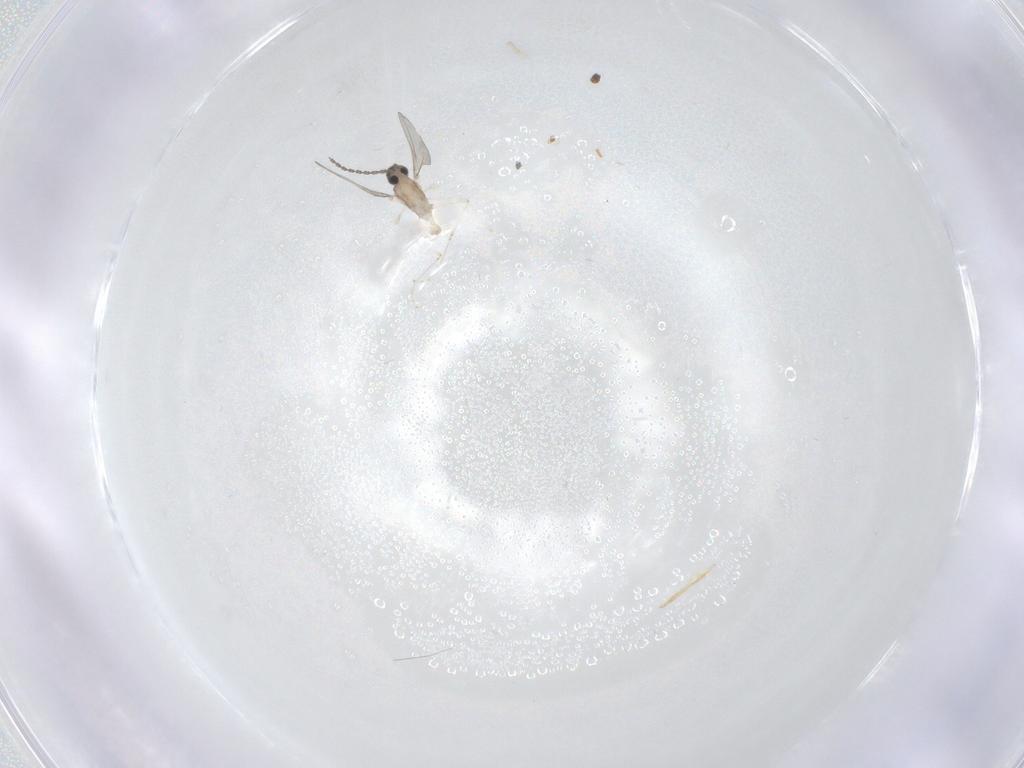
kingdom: Animalia
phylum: Arthropoda
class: Insecta
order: Diptera
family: Cecidomyiidae
